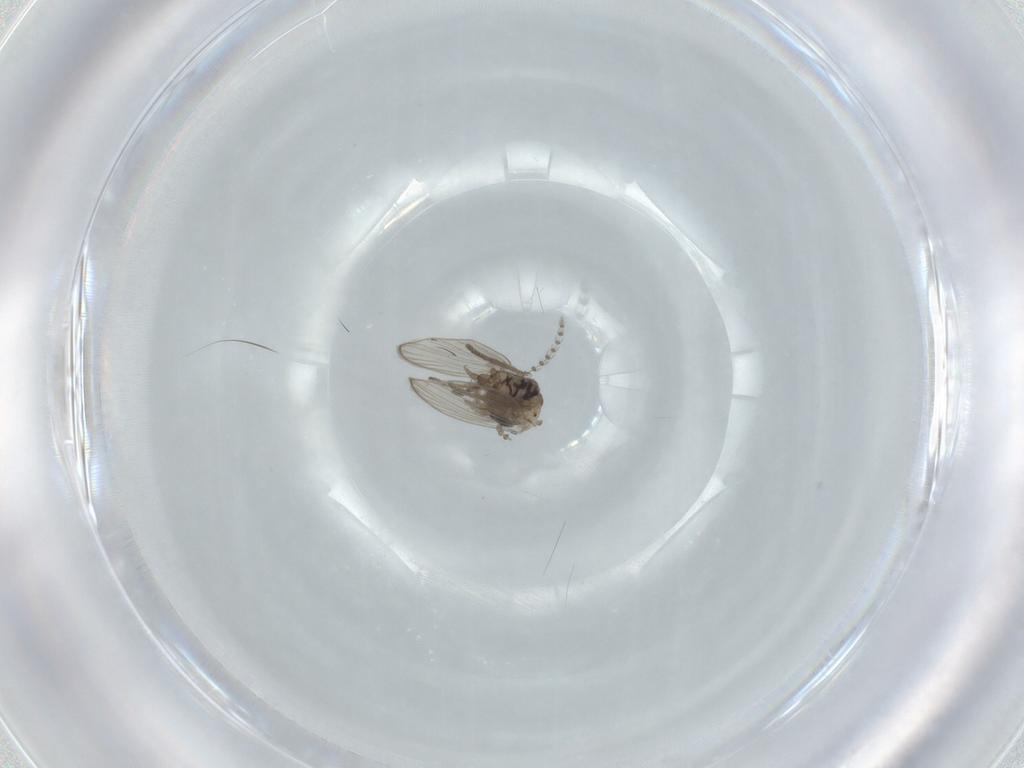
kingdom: Animalia
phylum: Arthropoda
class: Insecta
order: Diptera
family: Psychodidae
